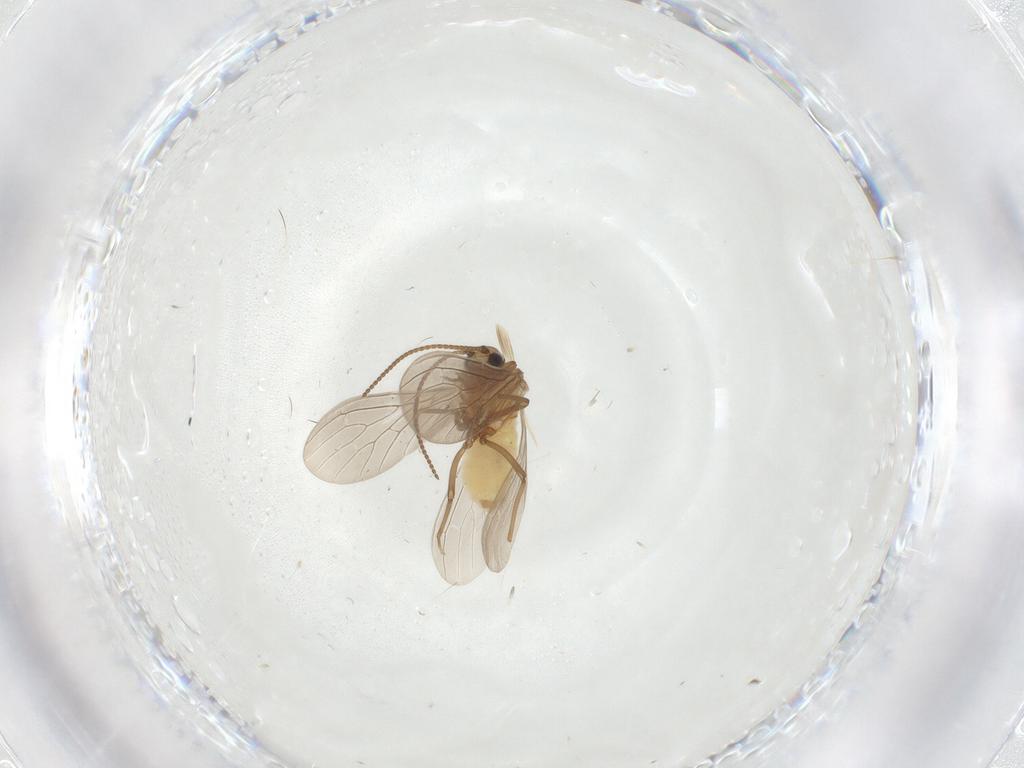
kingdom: Animalia
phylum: Arthropoda
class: Insecta
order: Neuroptera
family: Coniopterygidae
